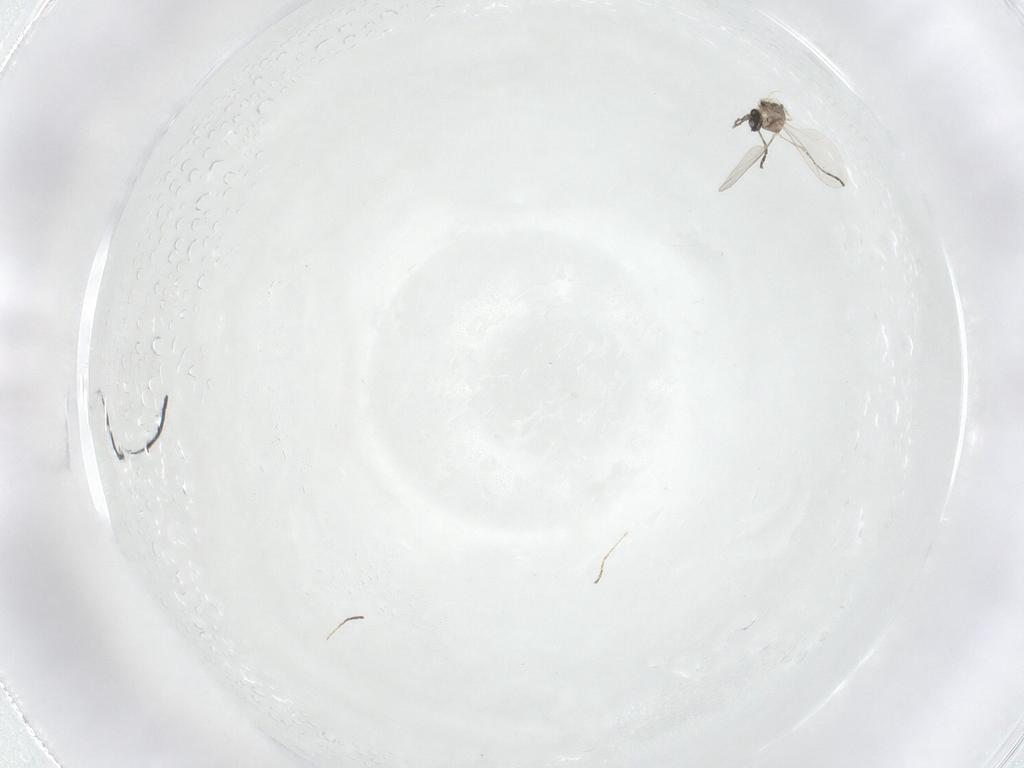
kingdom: Animalia
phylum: Arthropoda
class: Insecta
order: Diptera
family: Cecidomyiidae
